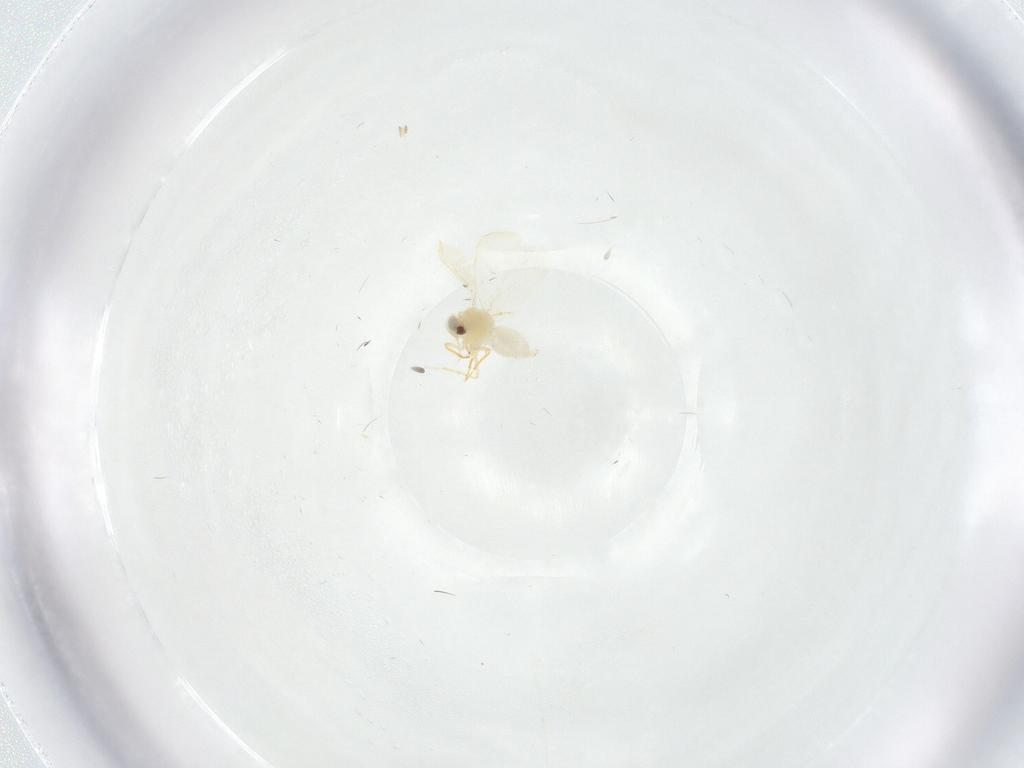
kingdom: Animalia
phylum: Arthropoda
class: Insecta
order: Hemiptera
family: Aleyrodidae
